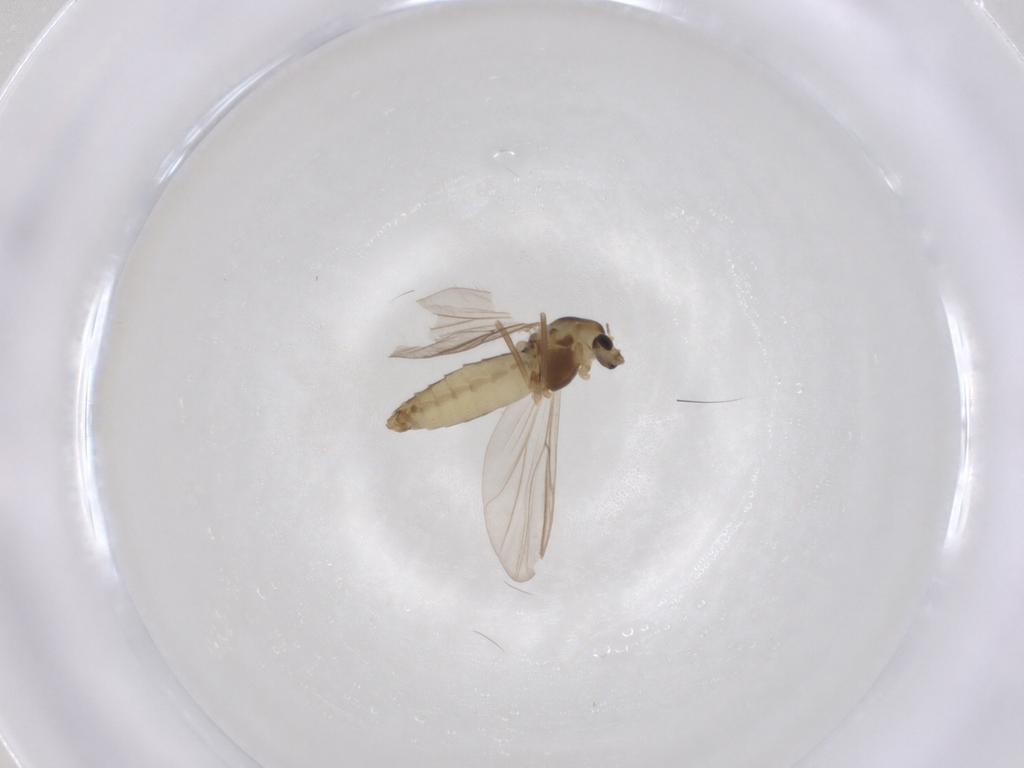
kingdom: Animalia
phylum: Arthropoda
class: Insecta
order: Diptera
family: Chironomidae
